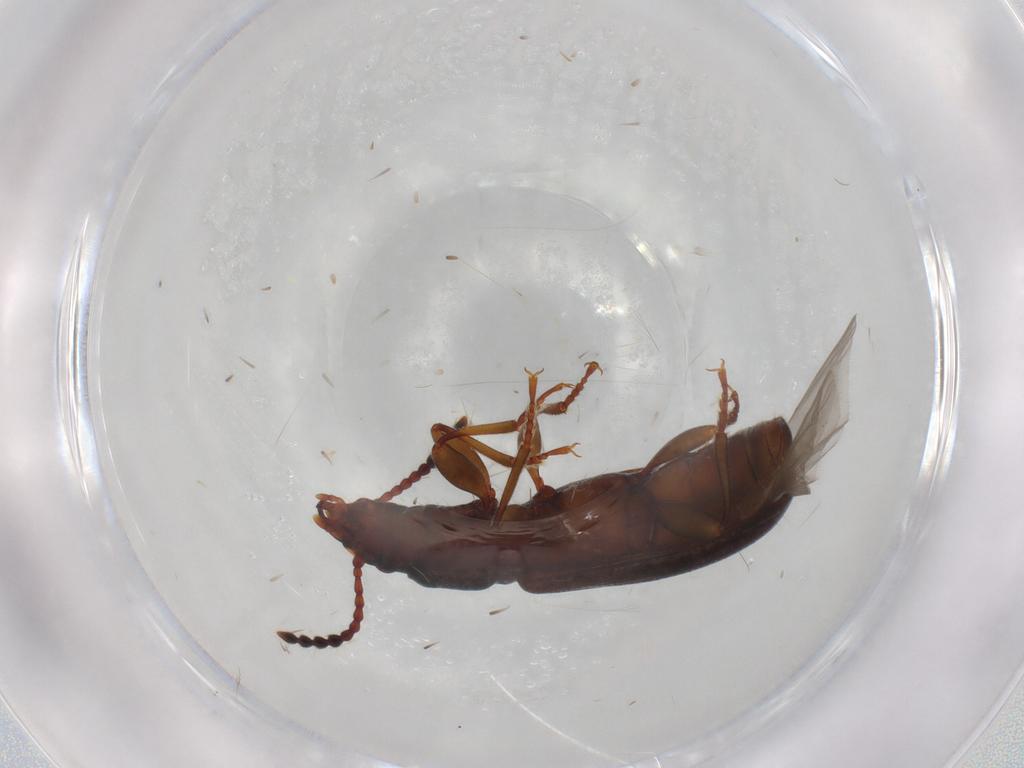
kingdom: Animalia
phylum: Arthropoda
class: Insecta
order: Coleoptera
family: Salpingidae
